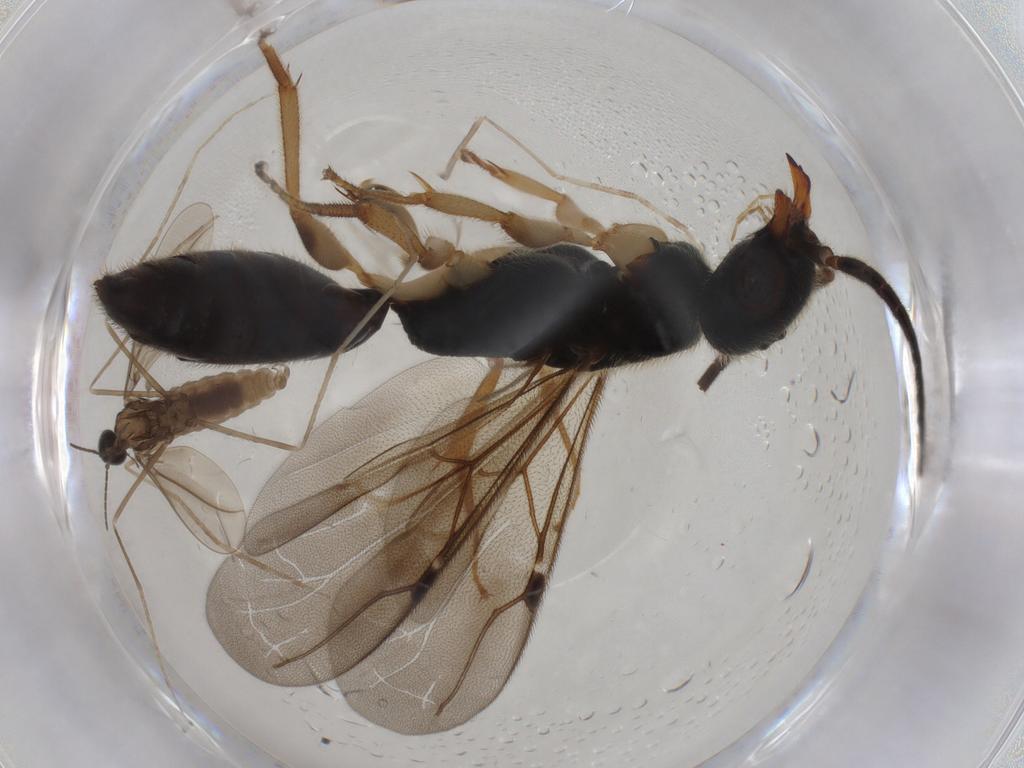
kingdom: Animalia
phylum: Arthropoda
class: Insecta
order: Diptera
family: Cecidomyiidae
